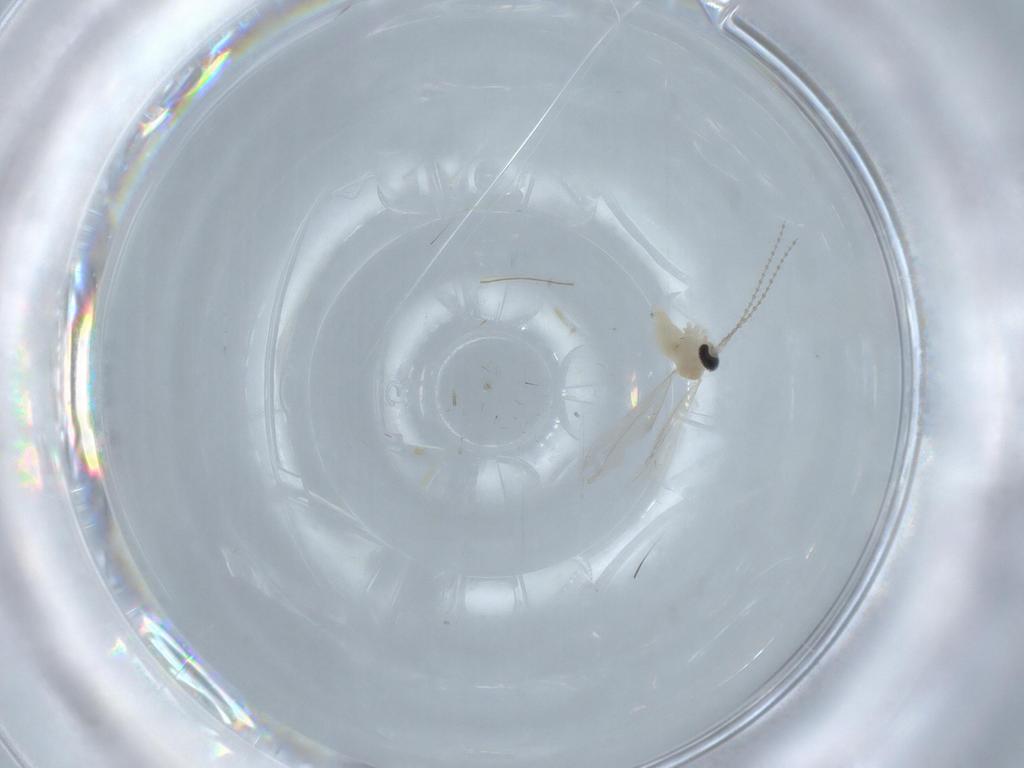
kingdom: Animalia
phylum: Arthropoda
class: Insecta
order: Diptera
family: Cecidomyiidae
